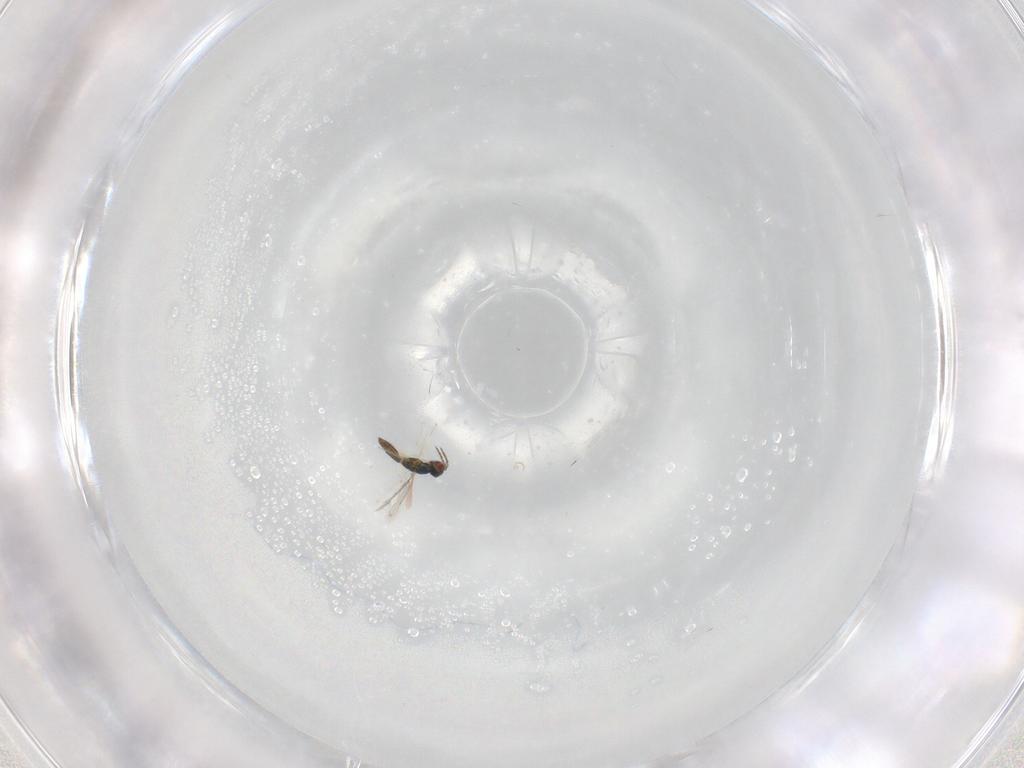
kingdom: Animalia
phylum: Arthropoda
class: Insecta
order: Hymenoptera
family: Eulophidae
